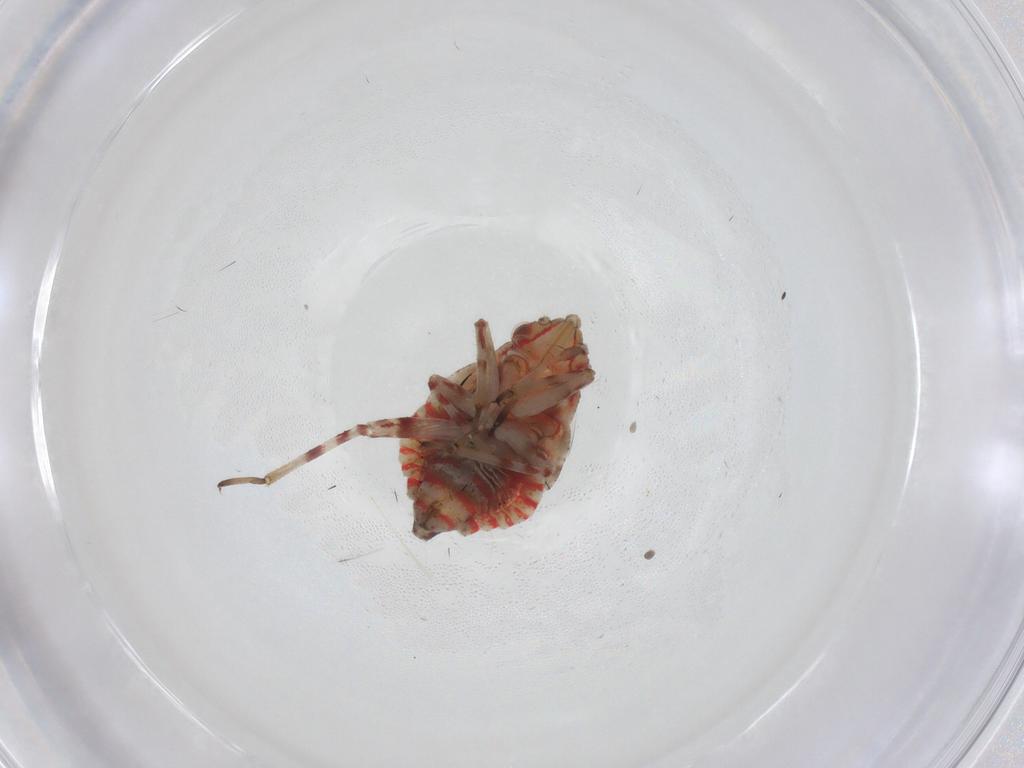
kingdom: Animalia
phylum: Arthropoda
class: Insecta
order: Hemiptera
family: Miridae
